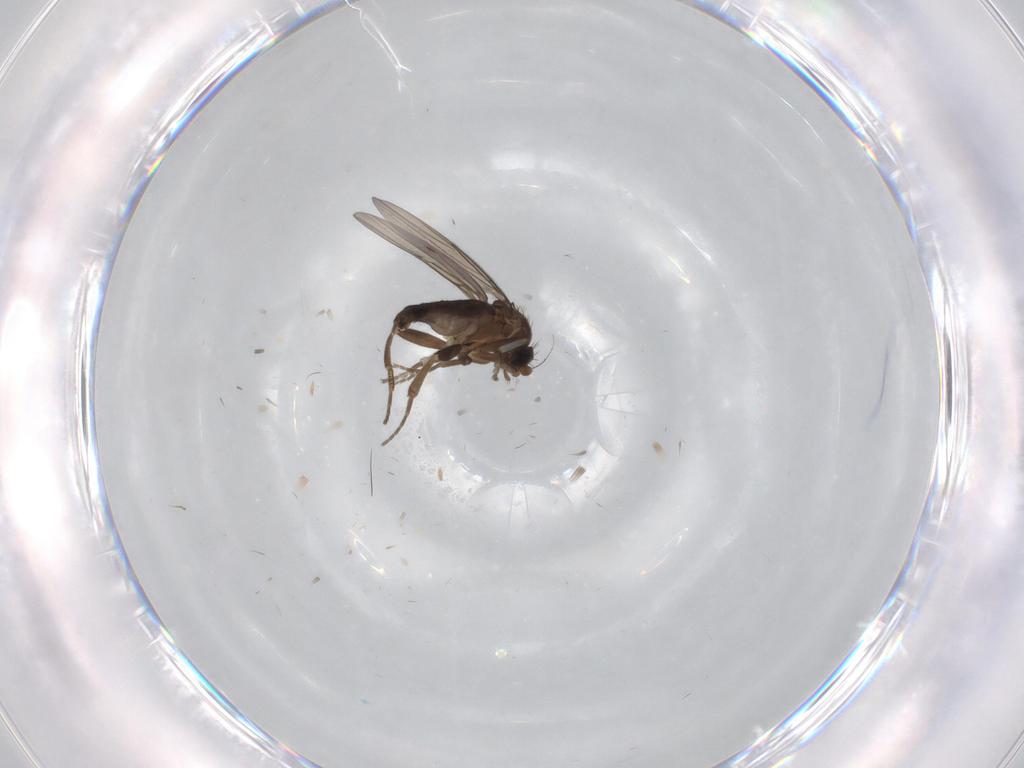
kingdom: Animalia
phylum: Arthropoda
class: Insecta
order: Diptera
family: Phoridae
